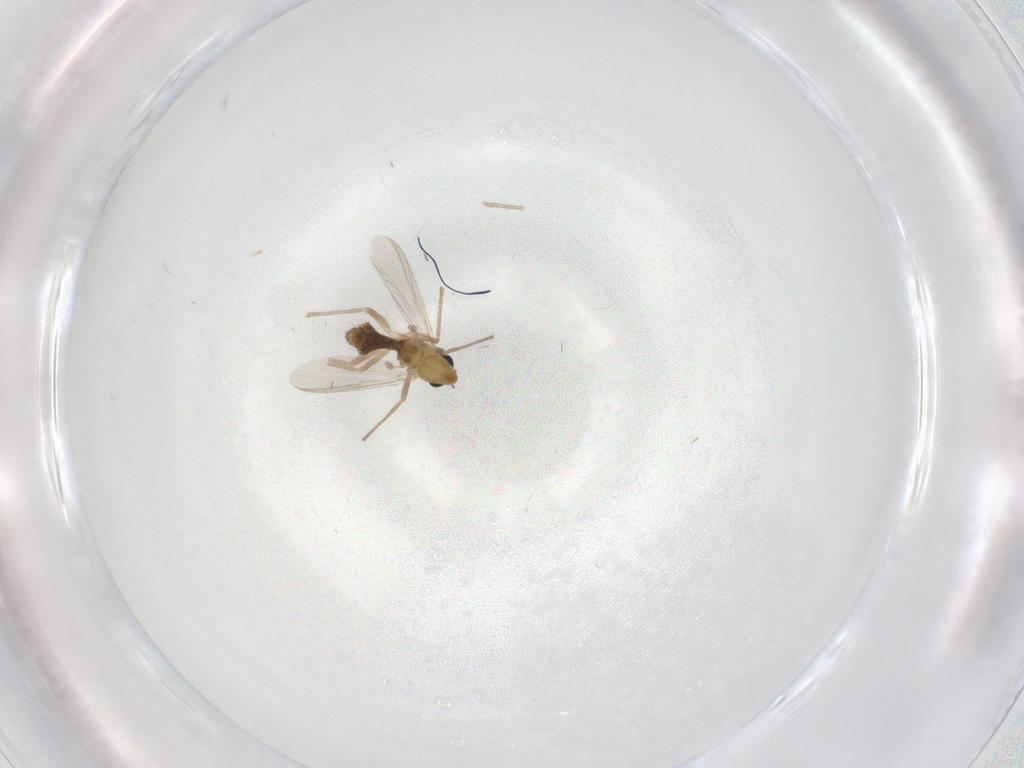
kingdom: Animalia
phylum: Arthropoda
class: Insecta
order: Diptera
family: Chironomidae
